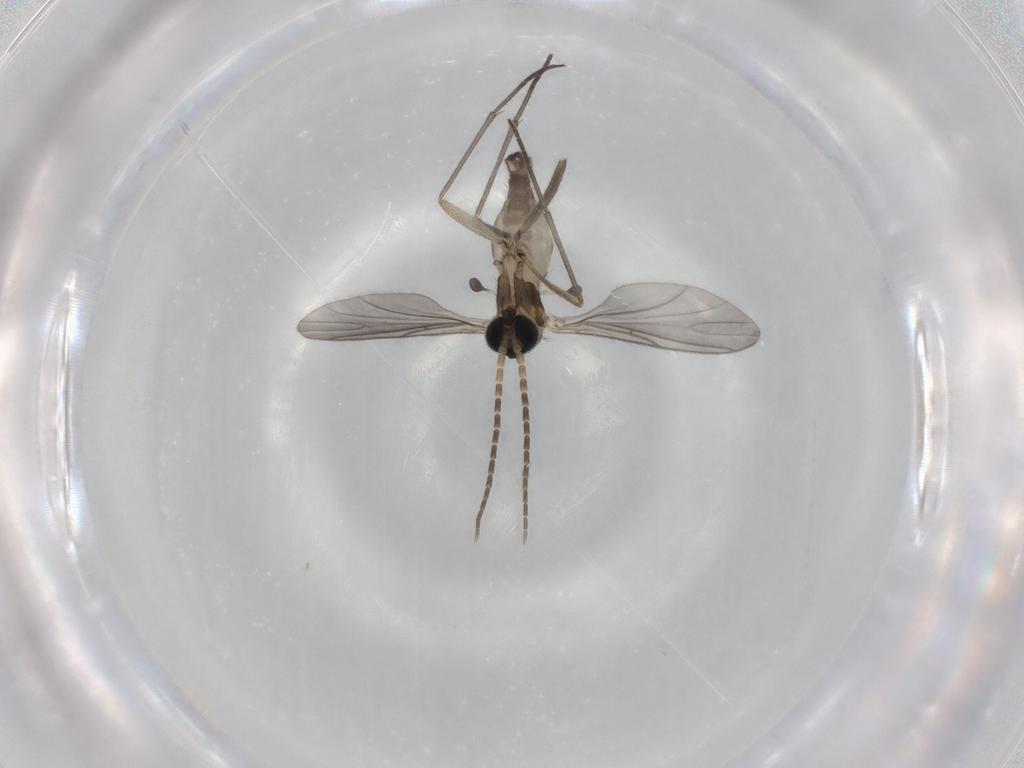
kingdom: Animalia
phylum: Arthropoda
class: Insecta
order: Diptera
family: Sciaridae
